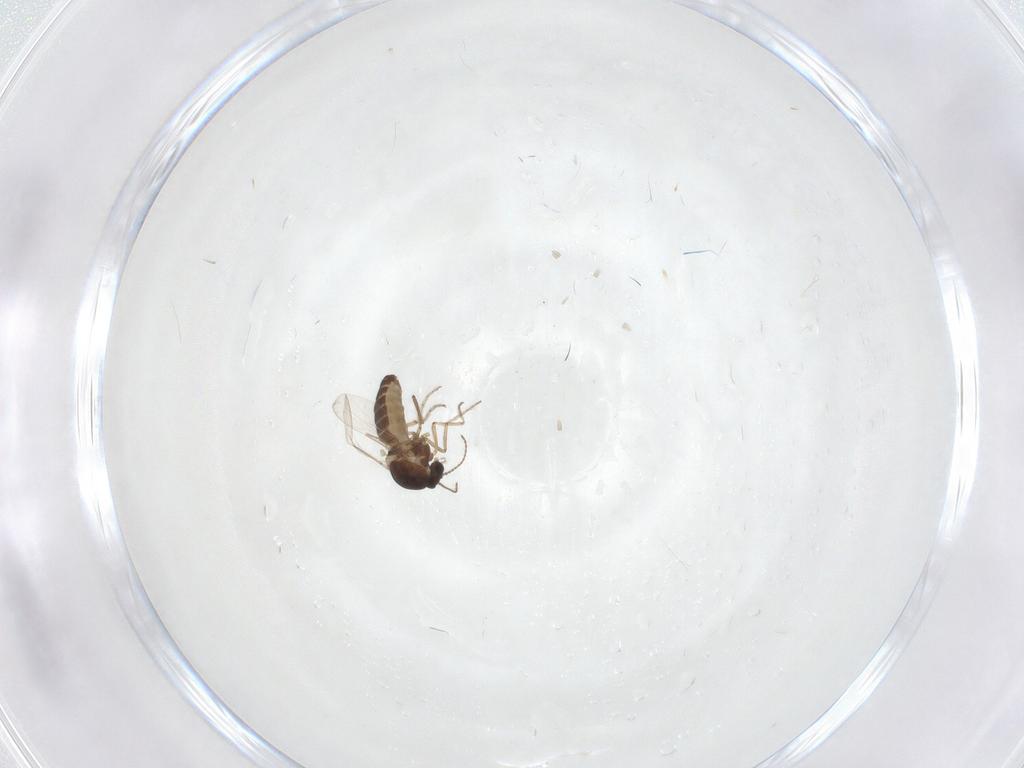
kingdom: Animalia
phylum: Arthropoda
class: Insecta
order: Diptera
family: Ceratopogonidae
